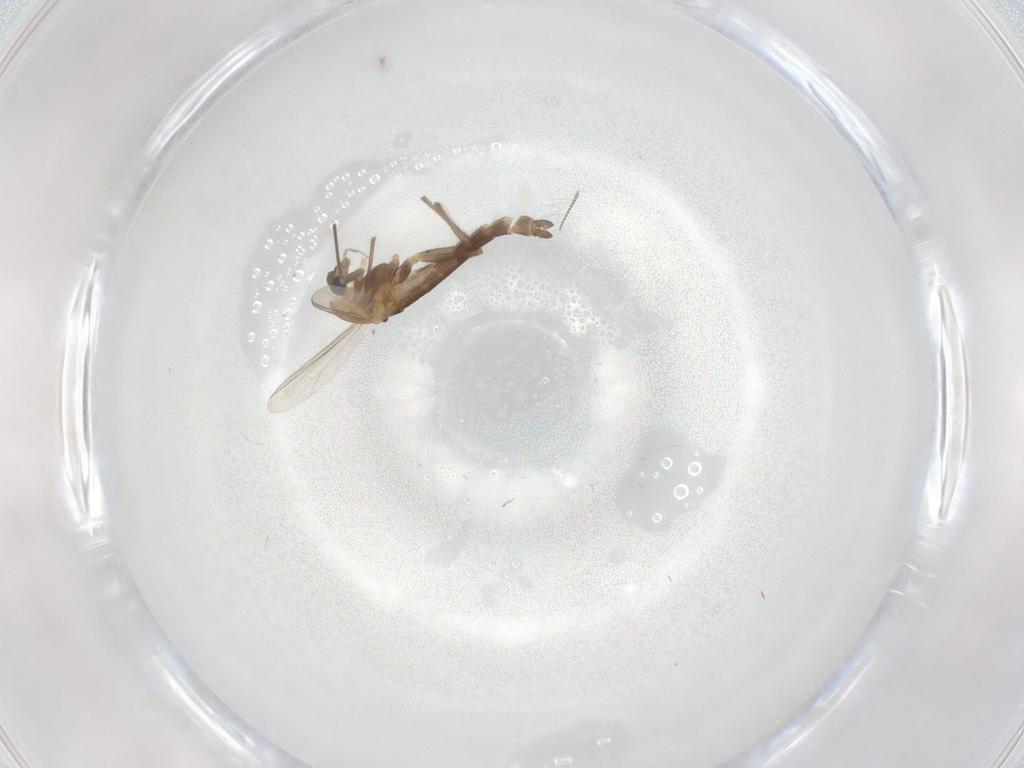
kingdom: Animalia
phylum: Arthropoda
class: Insecta
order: Diptera
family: Chironomidae
